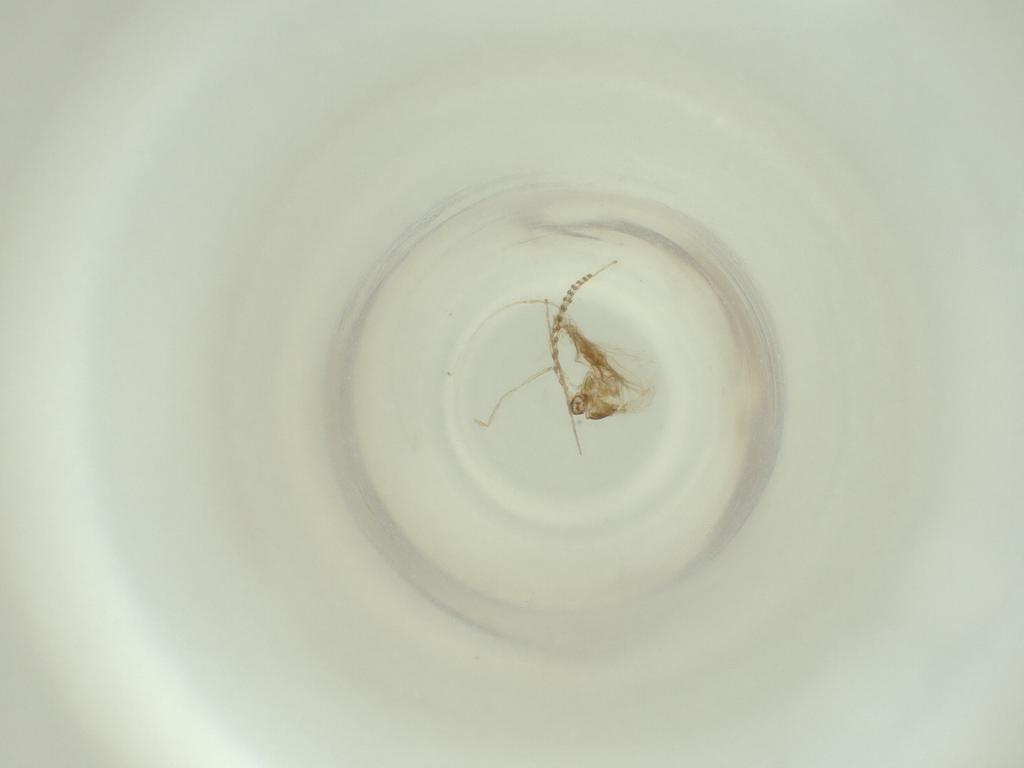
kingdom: Animalia
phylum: Arthropoda
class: Insecta
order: Diptera
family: Cecidomyiidae
